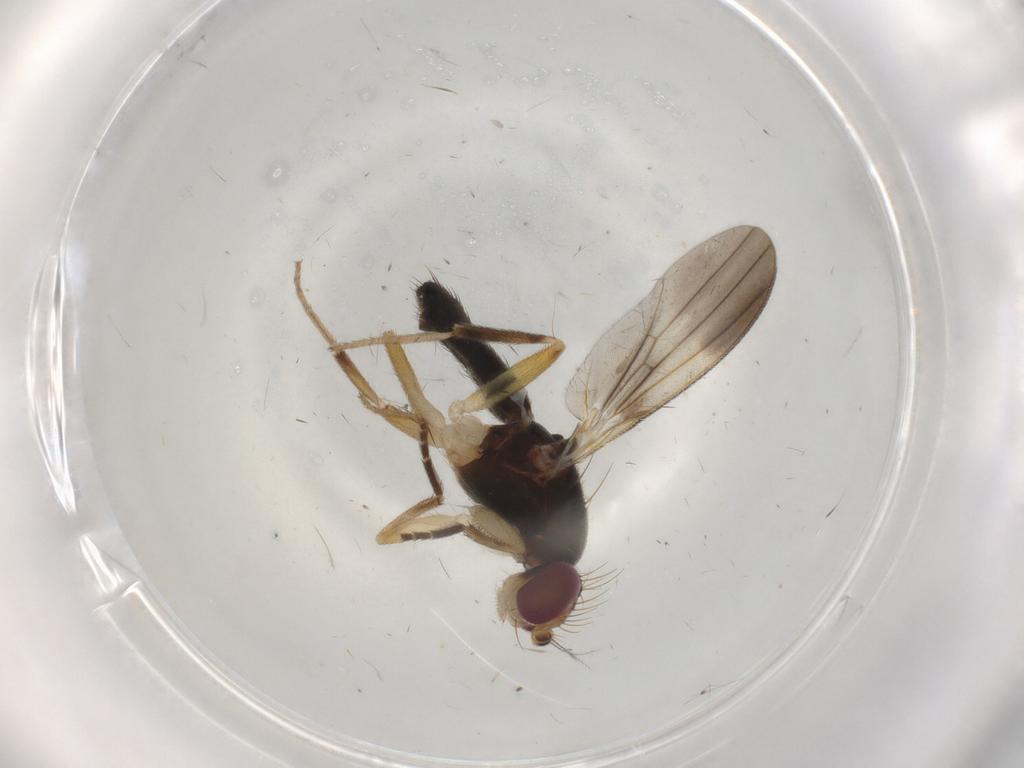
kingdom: Animalia
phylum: Arthropoda
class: Insecta
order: Diptera
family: Clusiidae
